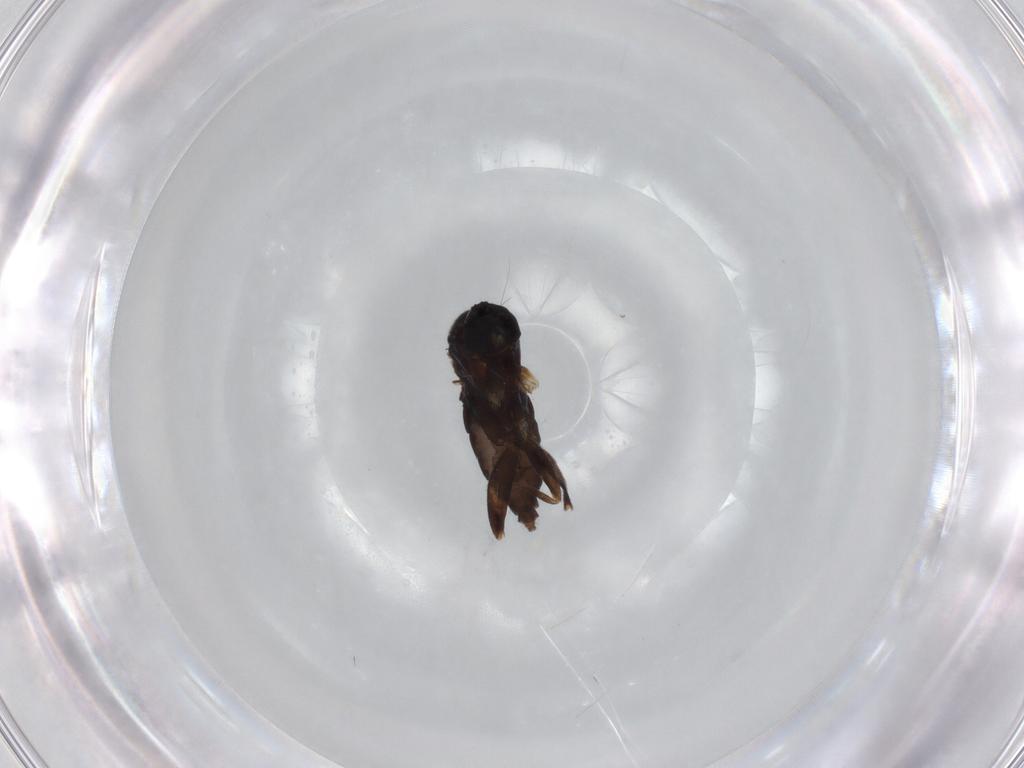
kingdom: Animalia
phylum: Arthropoda
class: Insecta
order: Diptera
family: Phoridae
